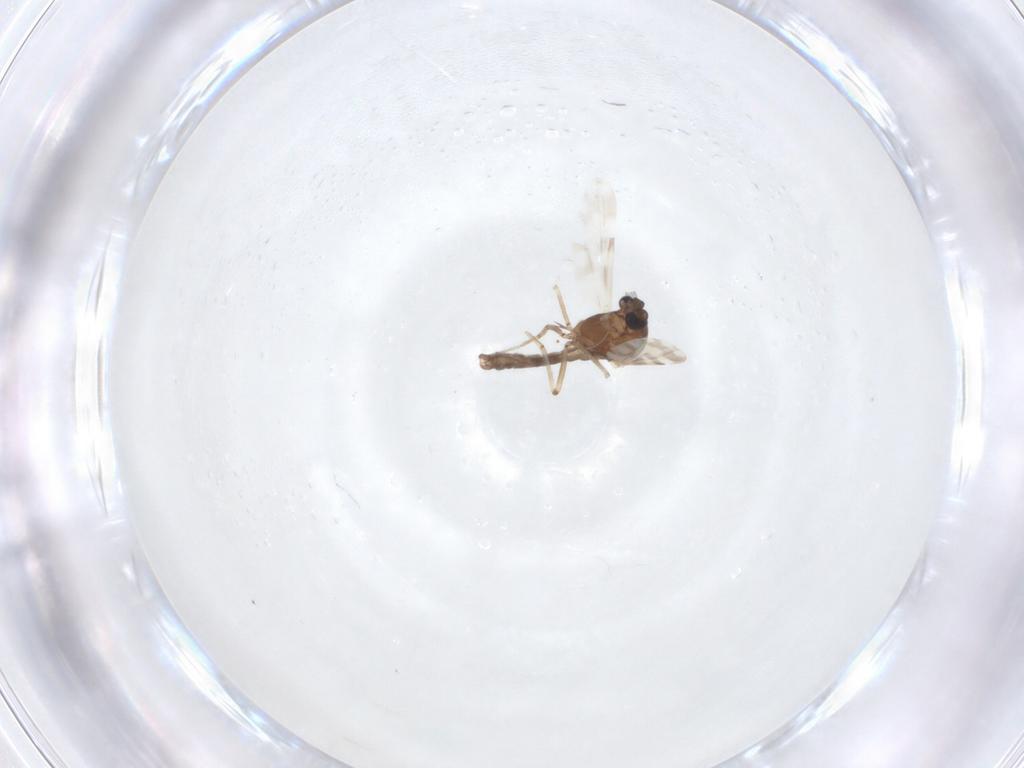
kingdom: Animalia
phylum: Arthropoda
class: Insecta
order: Diptera
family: Ceratopogonidae
